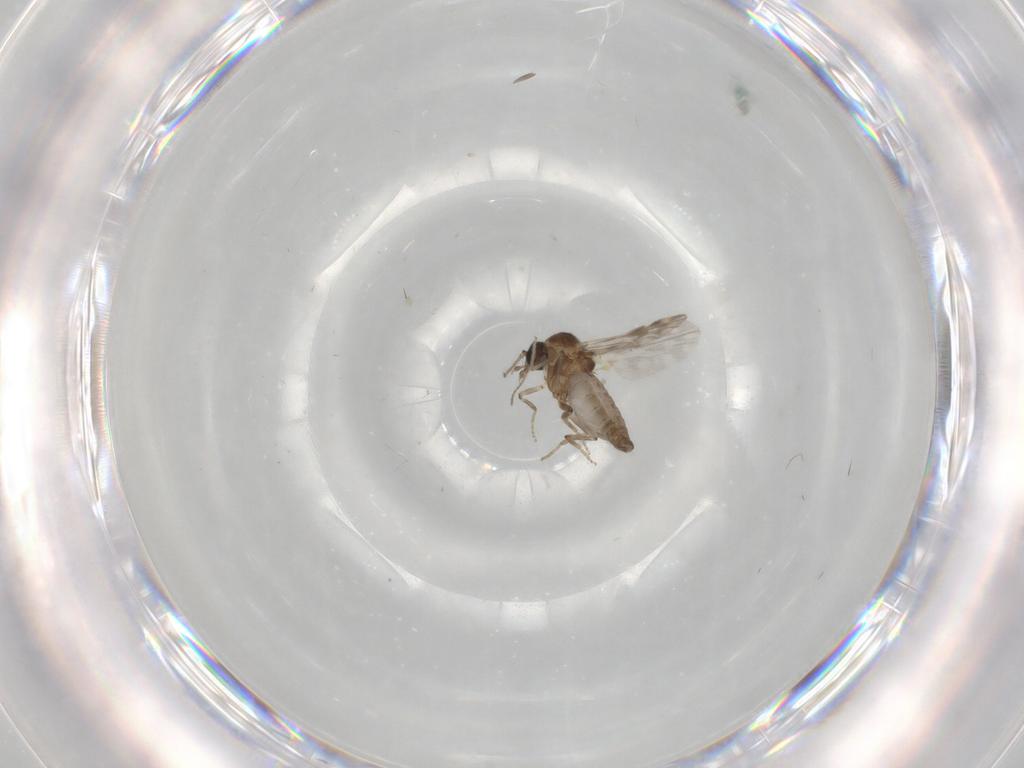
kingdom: Animalia
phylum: Arthropoda
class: Insecta
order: Diptera
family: Ceratopogonidae
